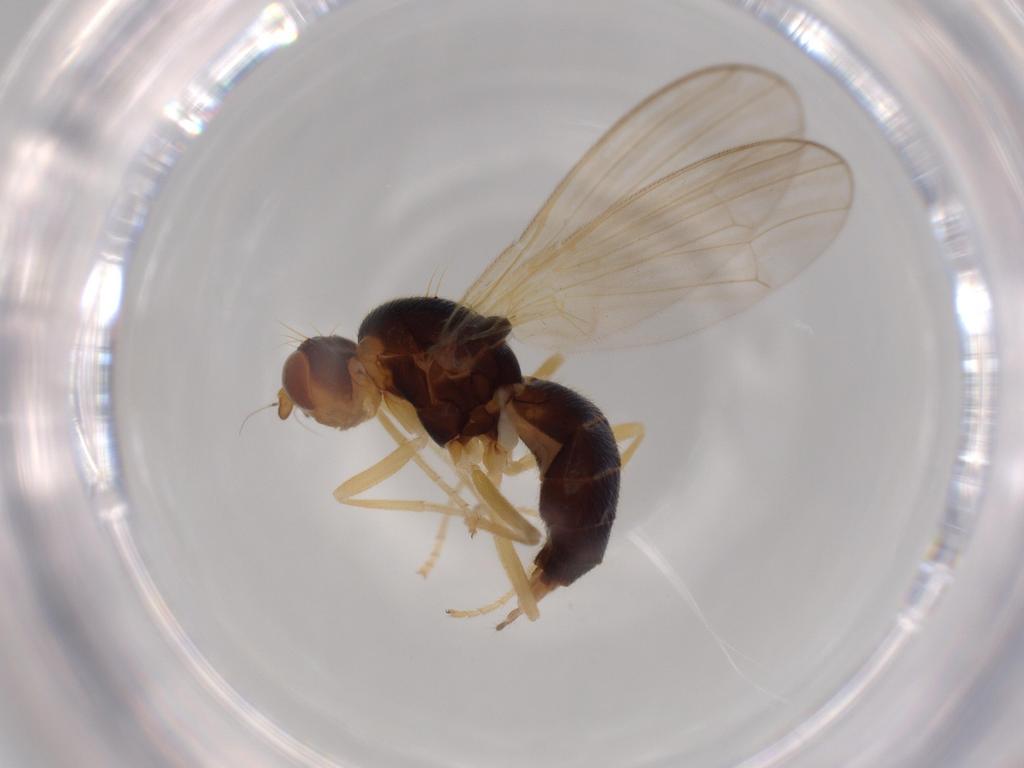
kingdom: Animalia
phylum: Arthropoda
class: Insecta
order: Diptera
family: Psilidae
